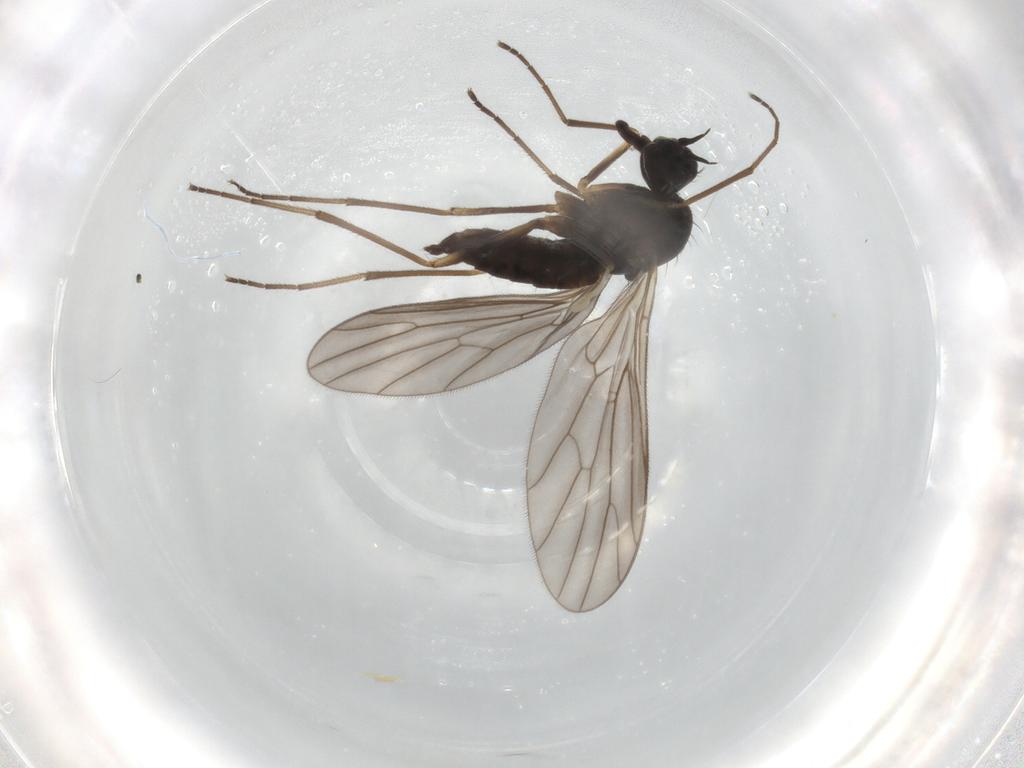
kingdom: Animalia
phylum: Arthropoda
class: Insecta
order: Diptera
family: Empididae
